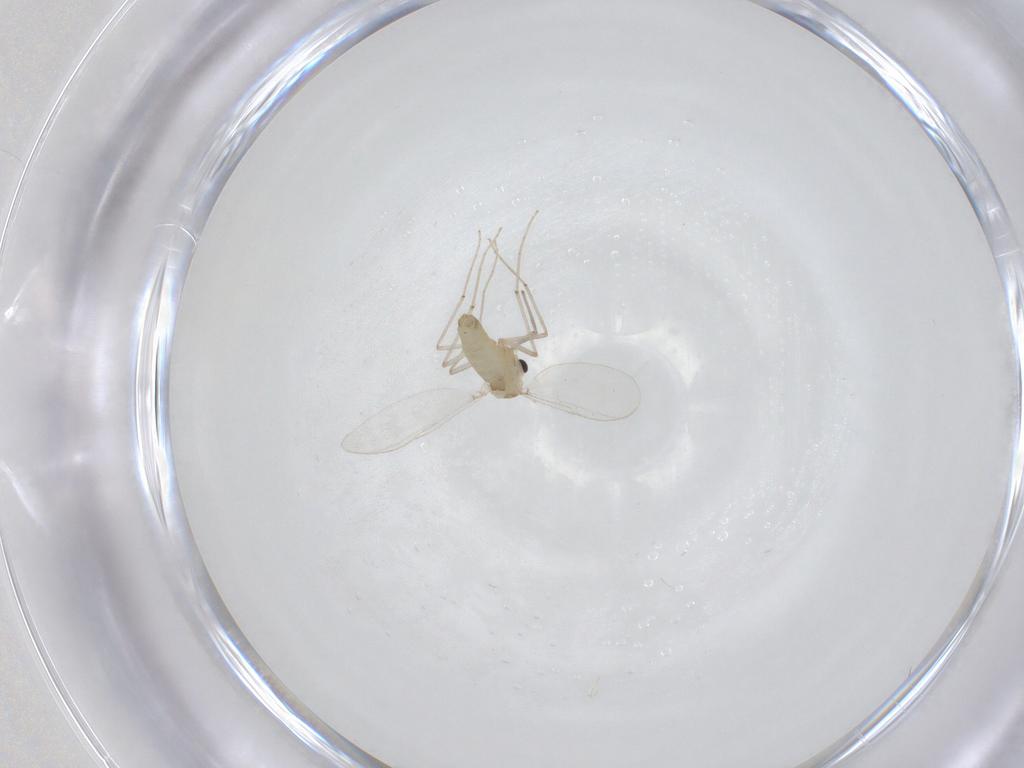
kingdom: Animalia
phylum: Arthropoda
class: Insecta
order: Diptera
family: Chironomidae
